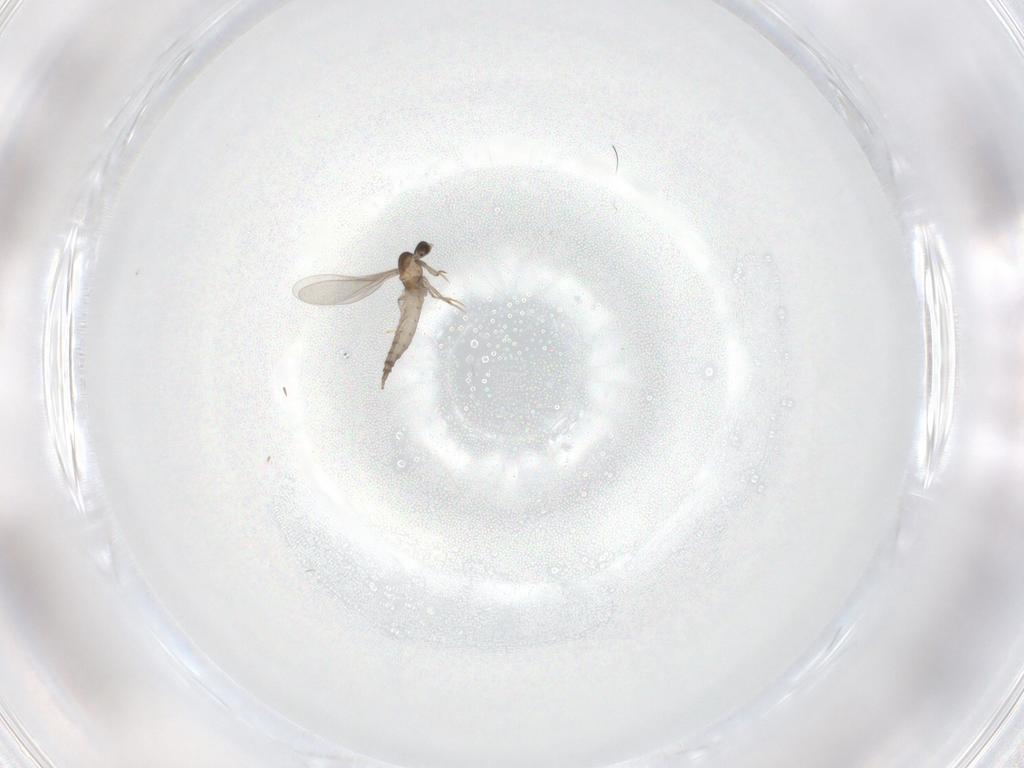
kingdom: Animalia
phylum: Arthropoda
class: Insecta
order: Diptera
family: Cecidomyiidae
